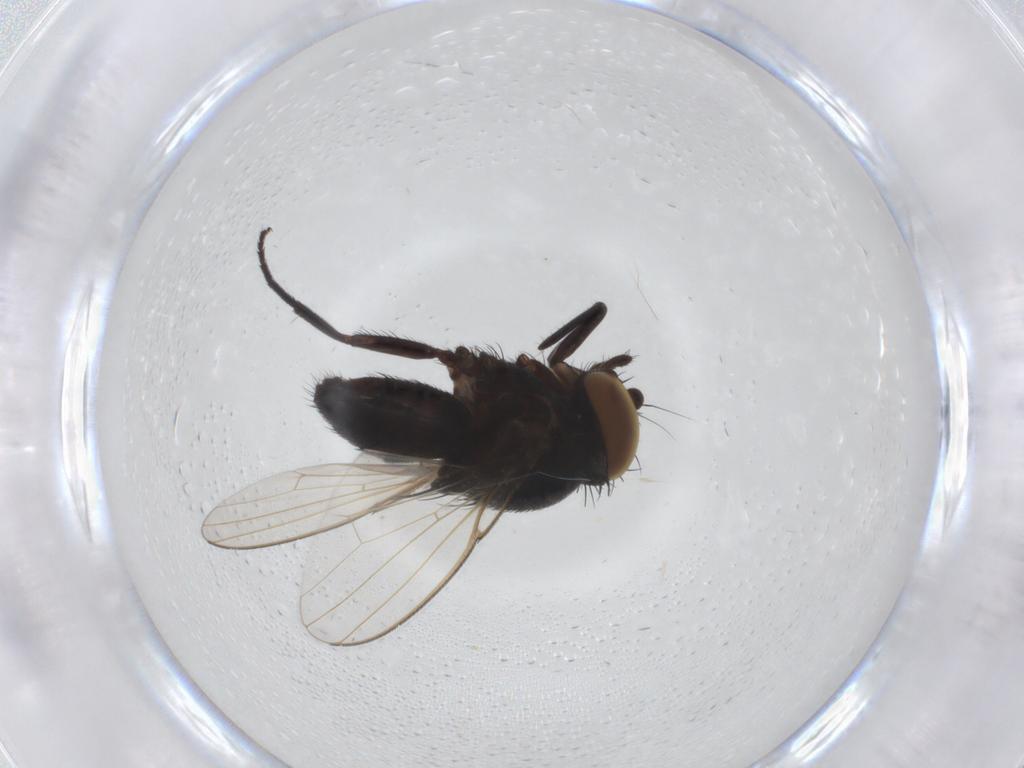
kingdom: Animalia
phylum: Arthropoda
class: Insecta
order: Diptera
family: Milichiidae
